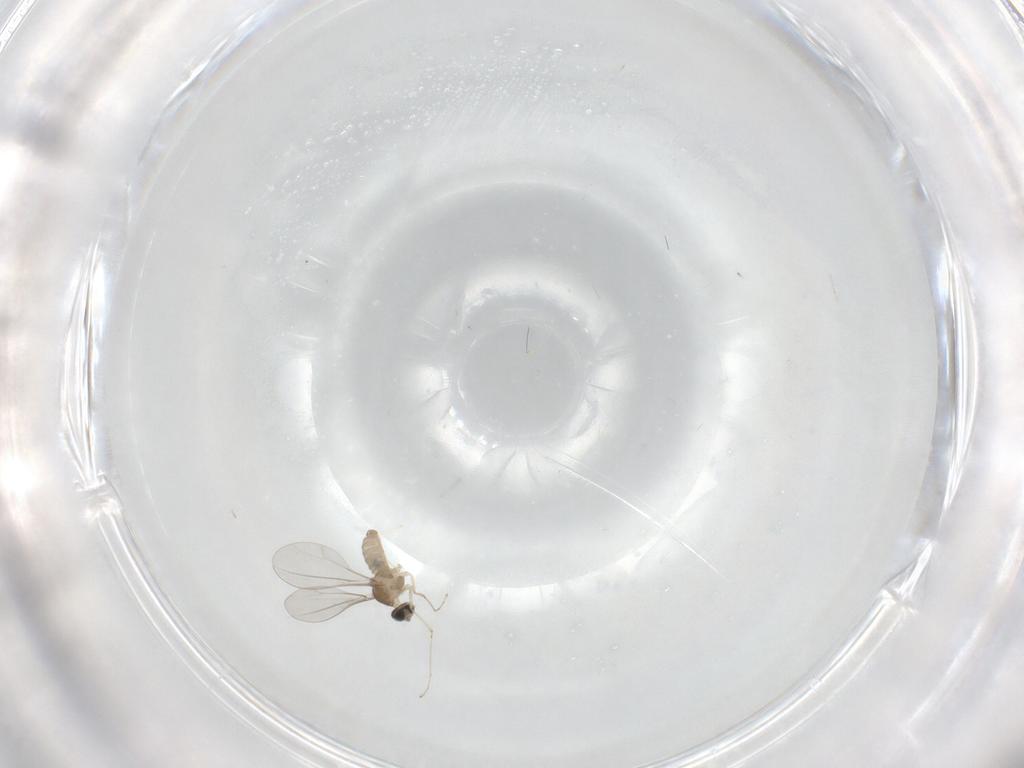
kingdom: Animalia
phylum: Arthropoda
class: Insecta
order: Diptera
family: Cecidomyiidae
